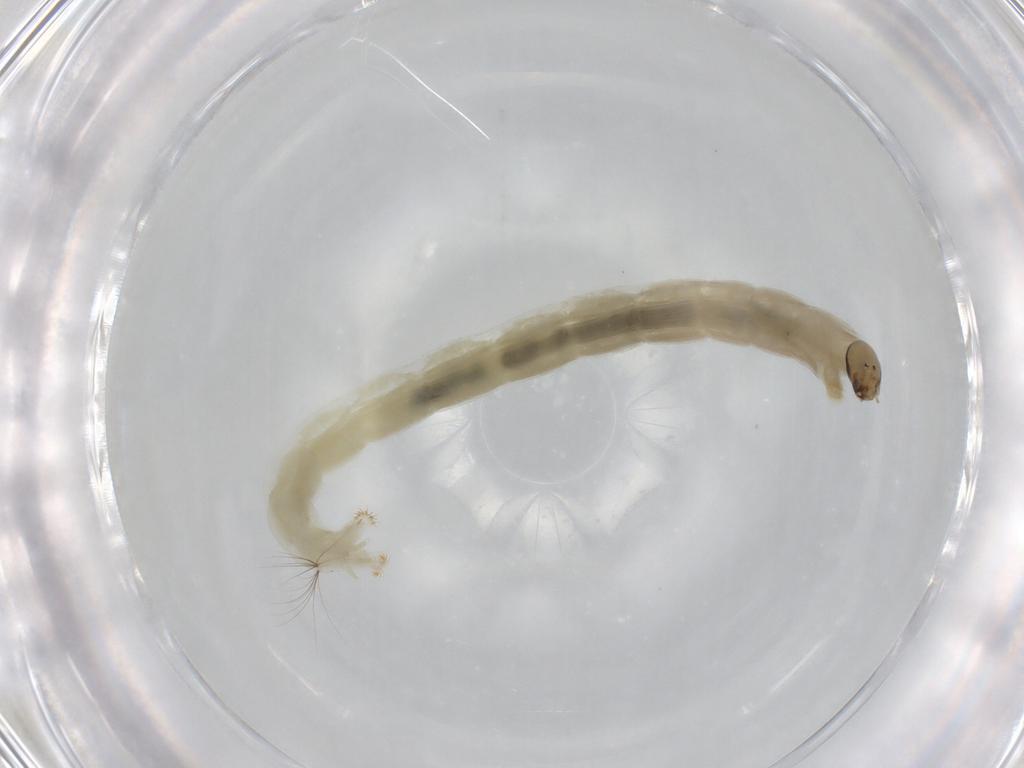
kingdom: Animalia
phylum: Arthropoda
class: Insecta
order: Diptera
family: Chironomidae
